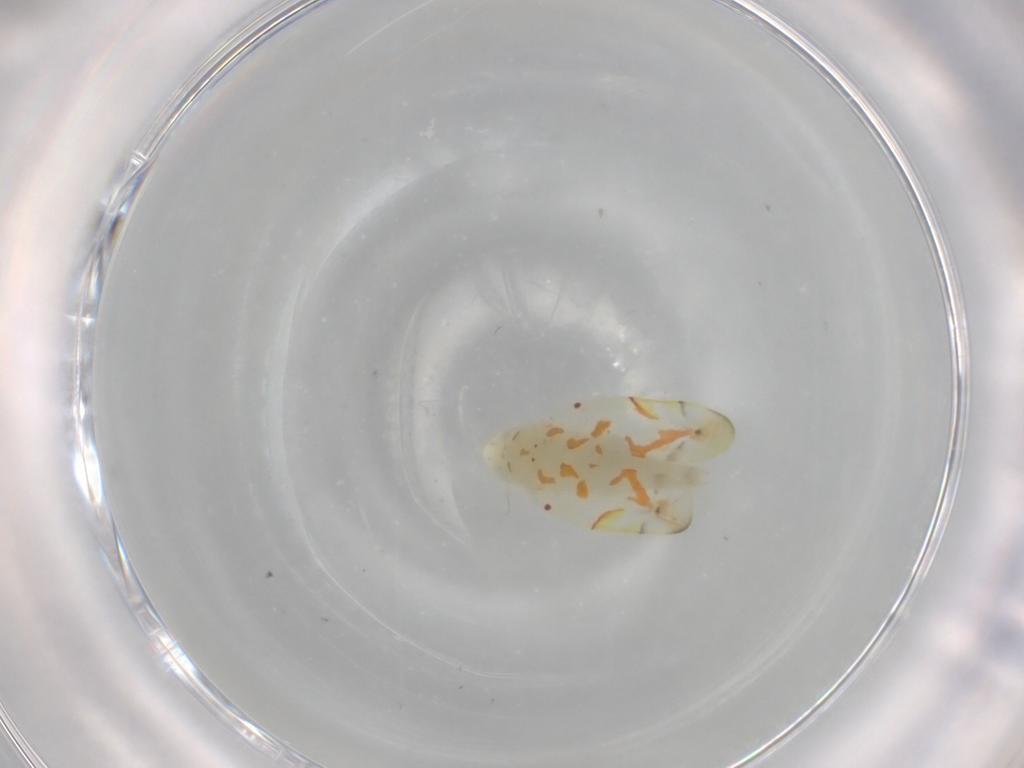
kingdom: Animalia
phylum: Arthropoda
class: Insecta
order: Hemiptera
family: Cicadellidae
